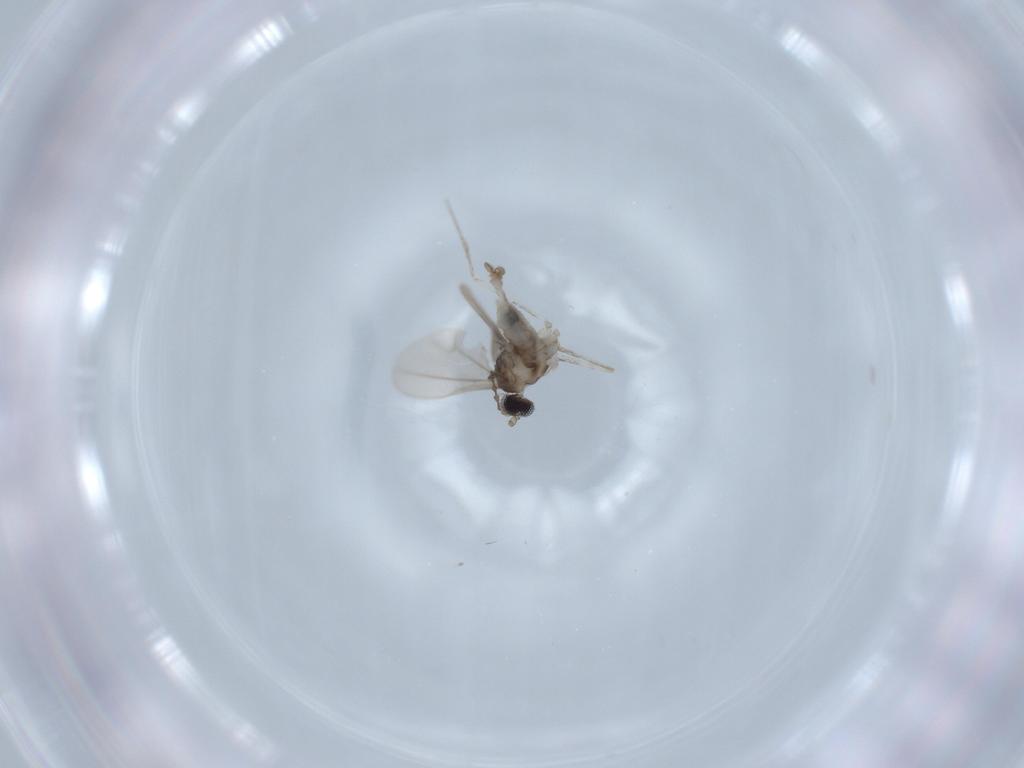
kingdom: Animalia
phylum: Arthropoda
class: Insecta
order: Diptera
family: Cecidomyiidae
